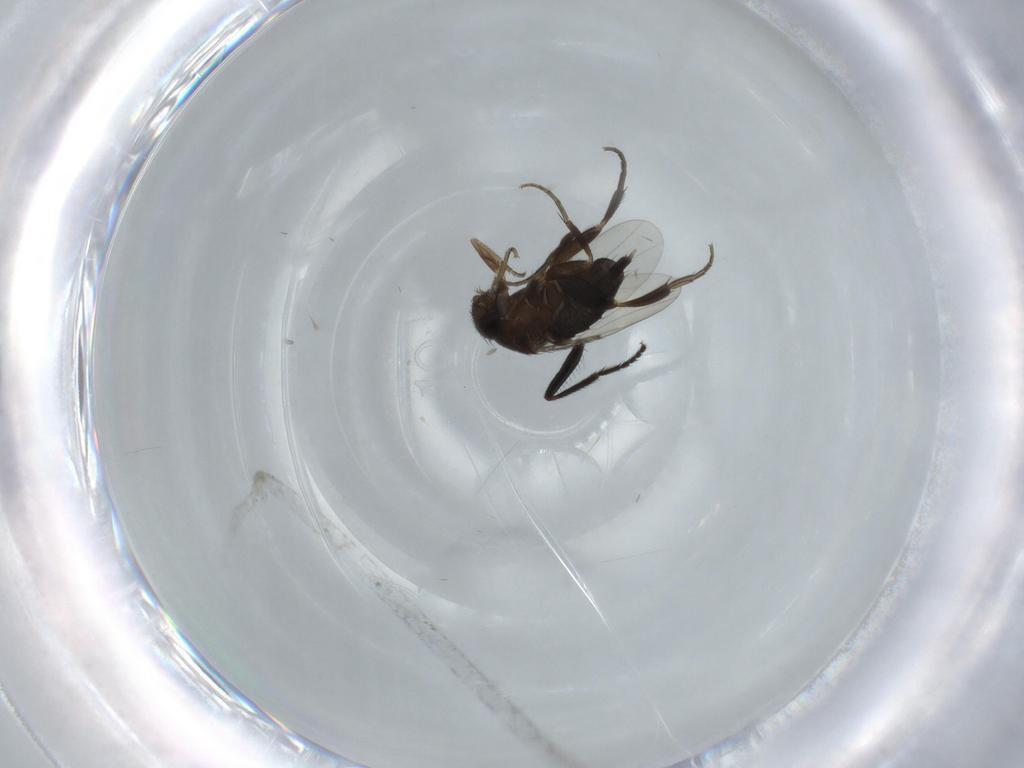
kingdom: Animalia
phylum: Arthropoda
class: Insecta
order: Diptera
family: Phoridae
